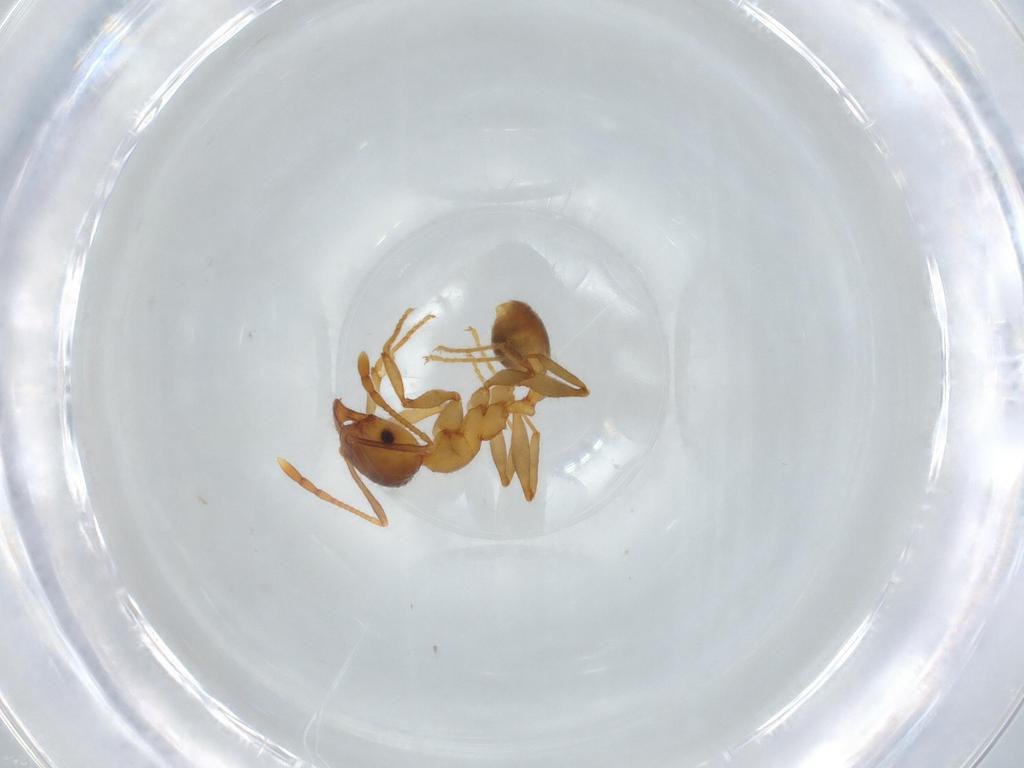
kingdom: Animalia
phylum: Arthropoda
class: Insecta
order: Hymenoptera
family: Formicidae
